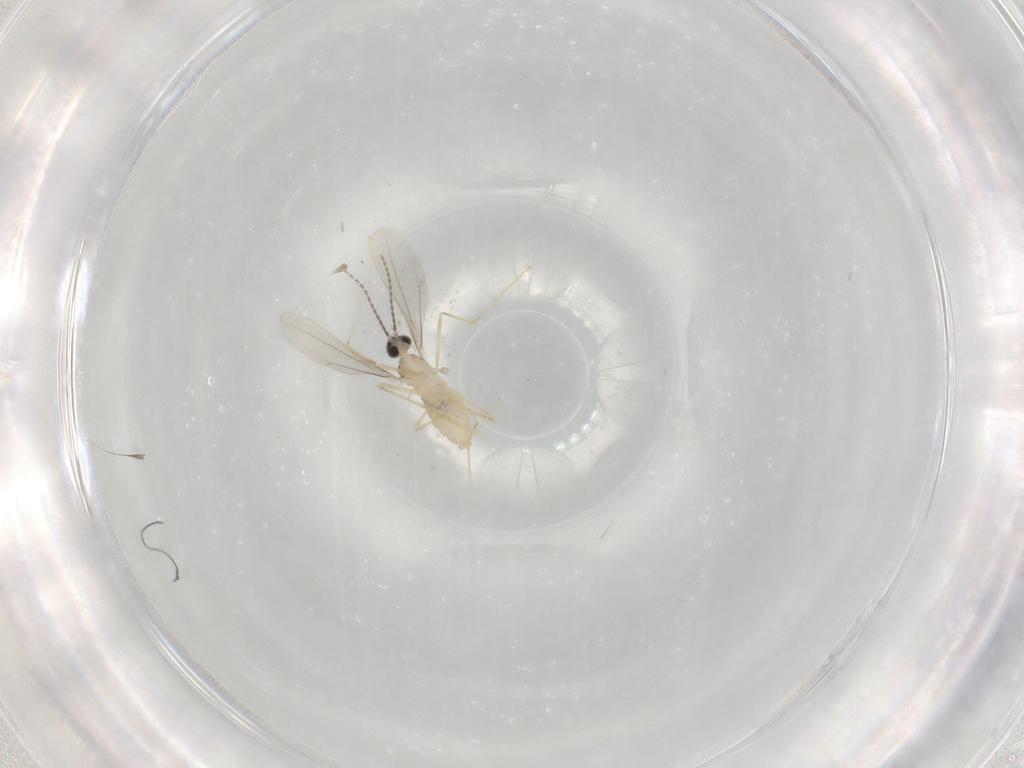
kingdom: Animalia
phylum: Arthropoda
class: Insecta
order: Diptera
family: Cecidomyiidae
